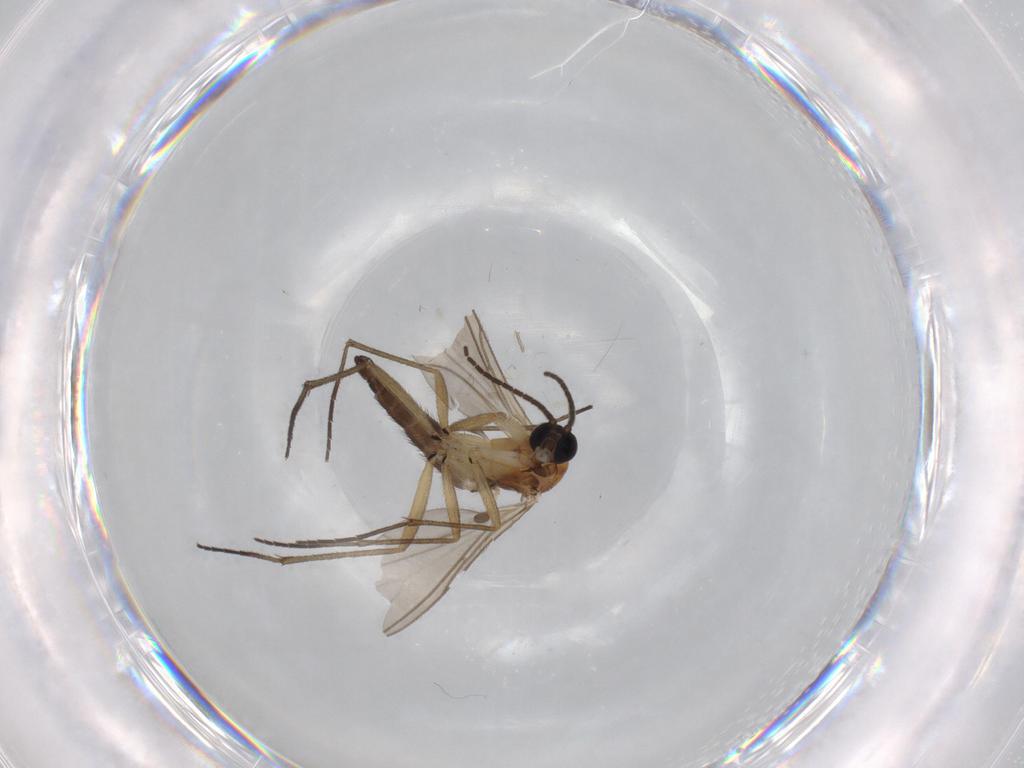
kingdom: Animalia
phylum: Arthropoda
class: Insecta
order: Diptera
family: Phoridae
